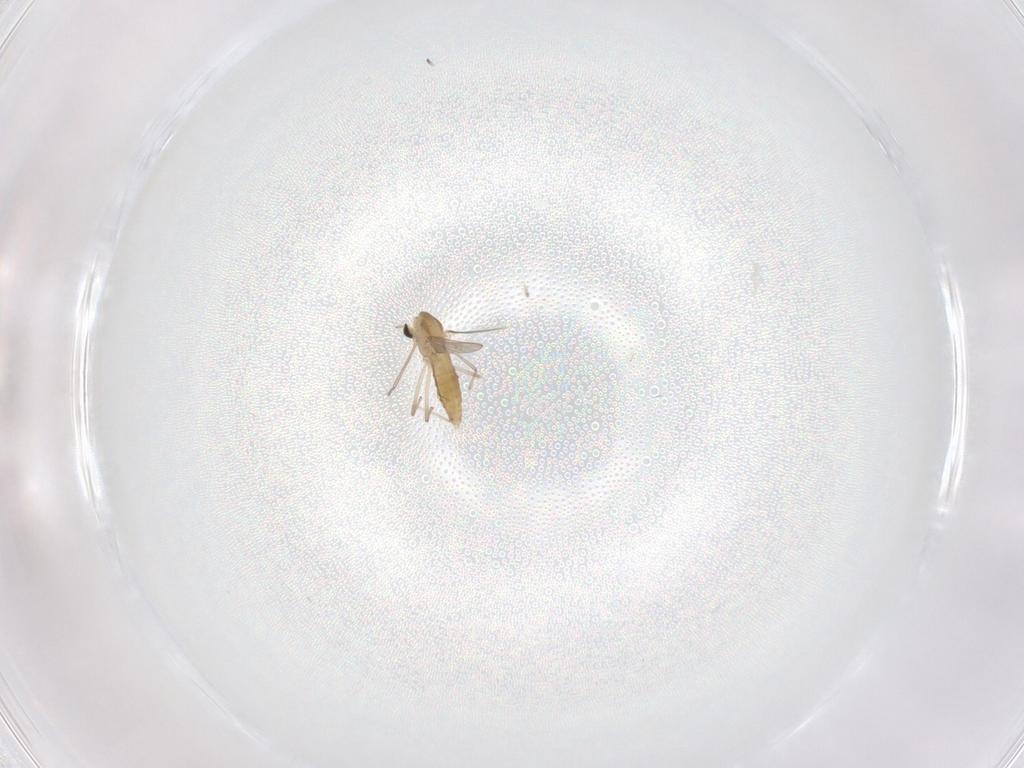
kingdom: Animalia
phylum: Arthropoda
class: Insecta
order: Diptera
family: Chironomidae
